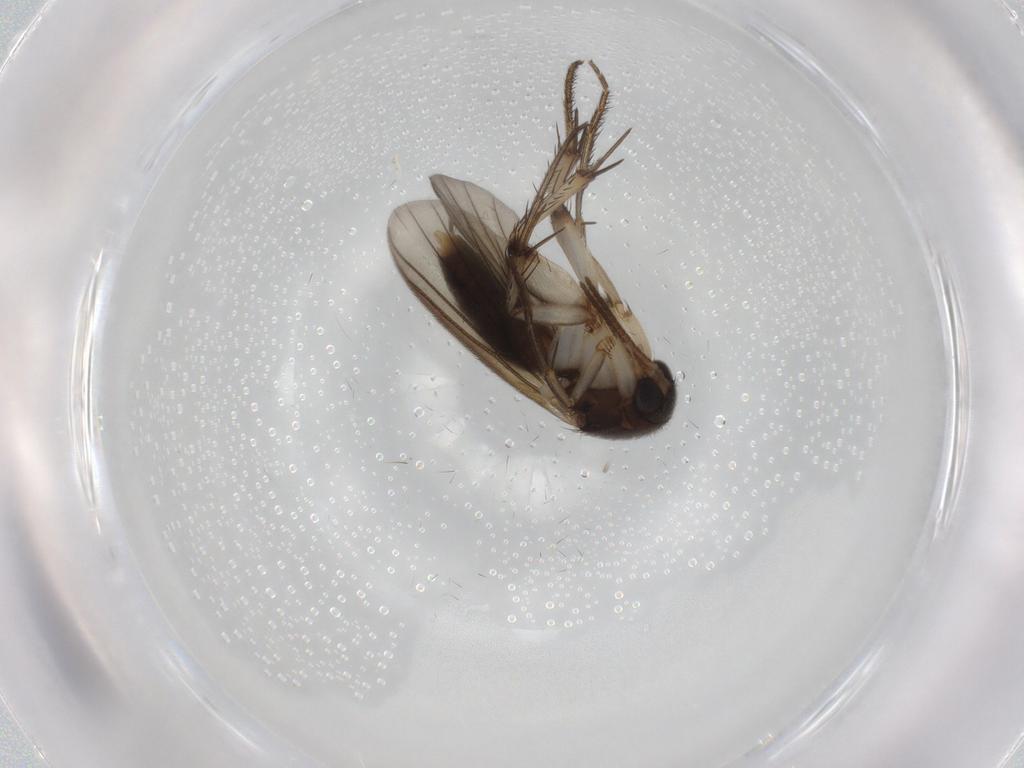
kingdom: Animalia
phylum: Arthropoda
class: Insecta
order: Diptera
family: Mycetophilidae
